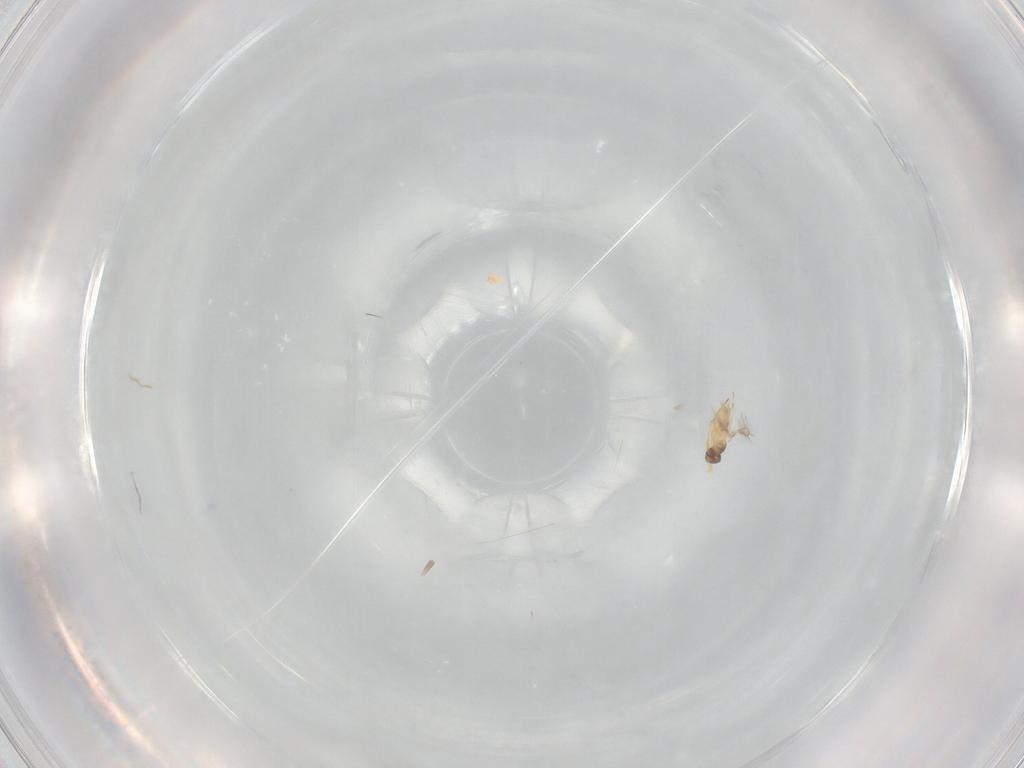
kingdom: Animalia
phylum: Arthropoda
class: Insecta
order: Hymenoptera
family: Mymaridae
